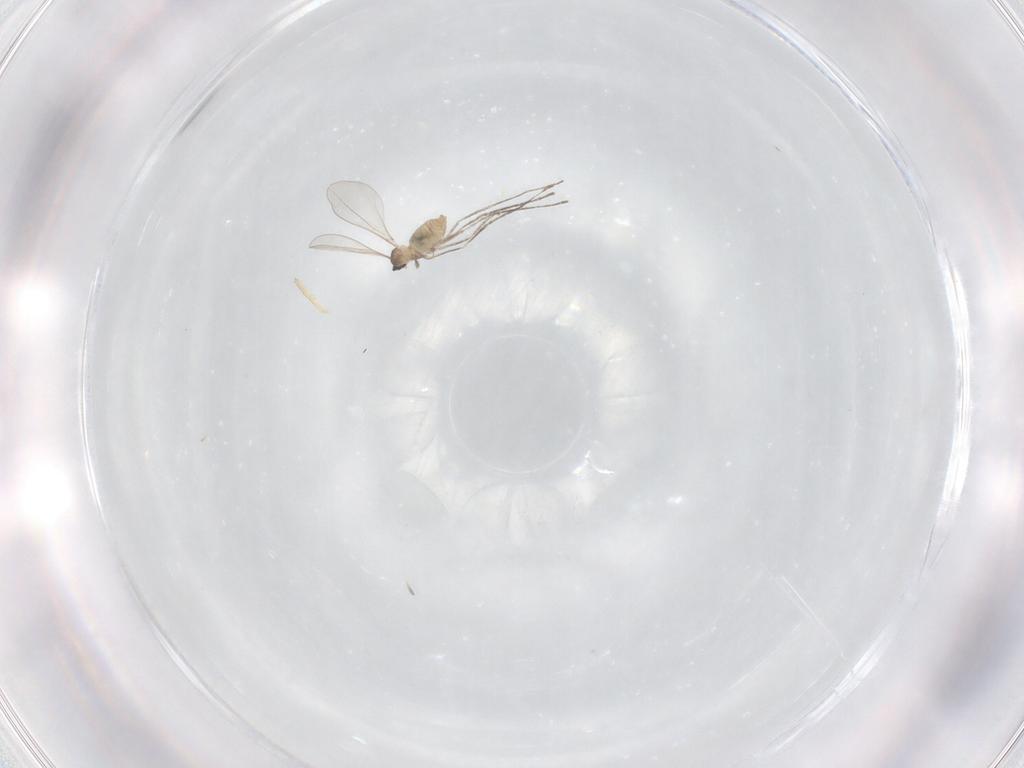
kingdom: Animalia
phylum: Arthropoda
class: Insecta
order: Diptera
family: Cecidomyiidae
